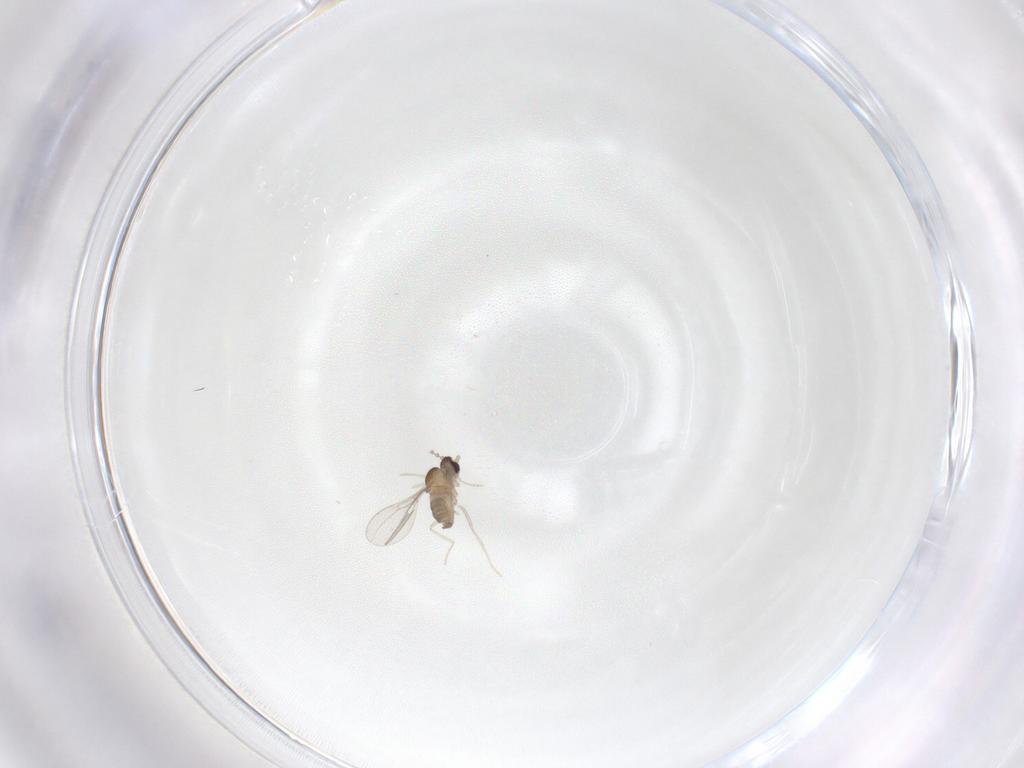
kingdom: Animalia
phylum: Arthropoda
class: Insecta
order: Diptera
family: Cecidomyiidae
